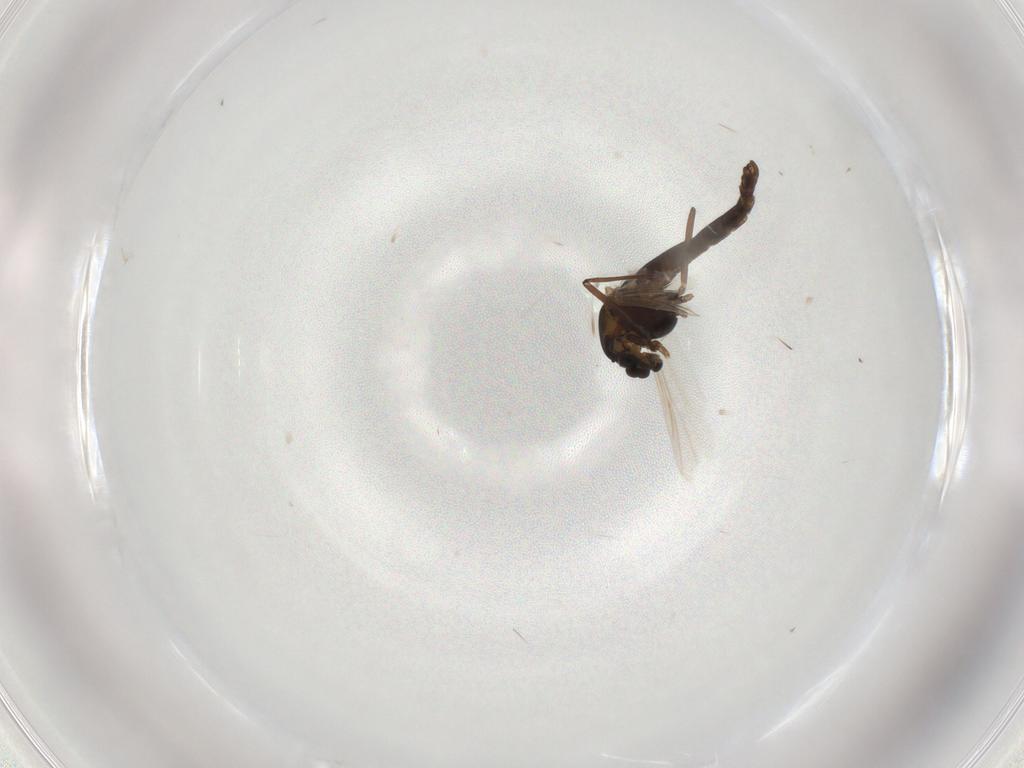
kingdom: Animalia
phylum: Arthropoda
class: Insecta
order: Diptera
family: Chironomidae
